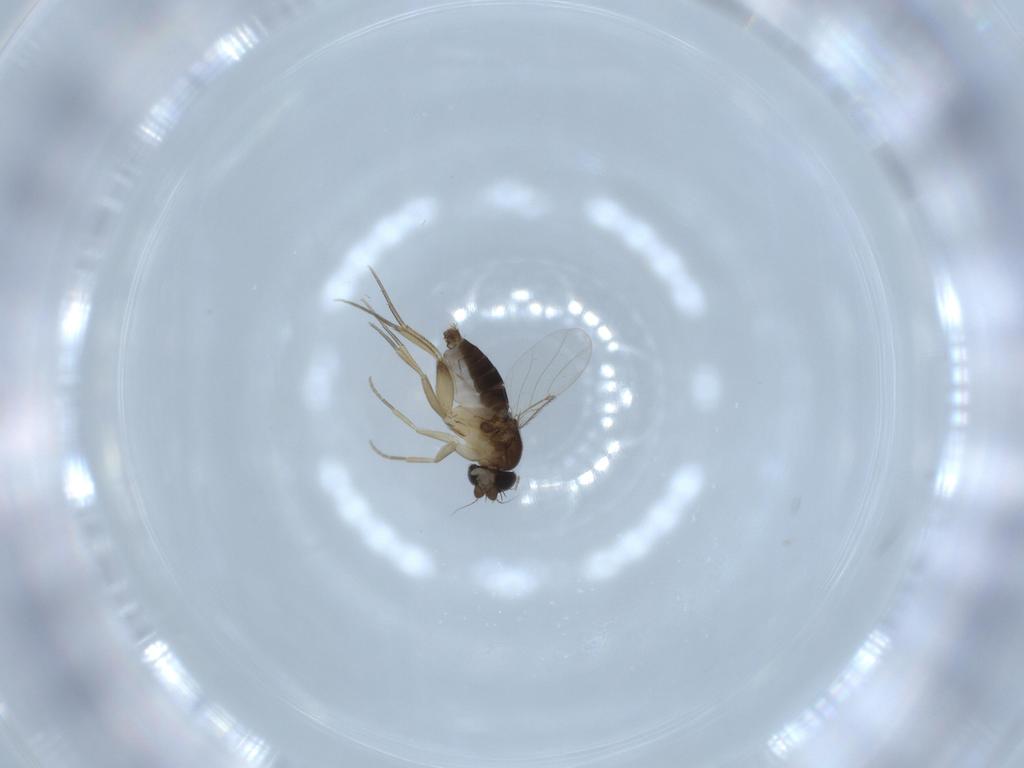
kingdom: Animalia
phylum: Arthropoda
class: Insecta
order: Diptera
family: Phoridae
